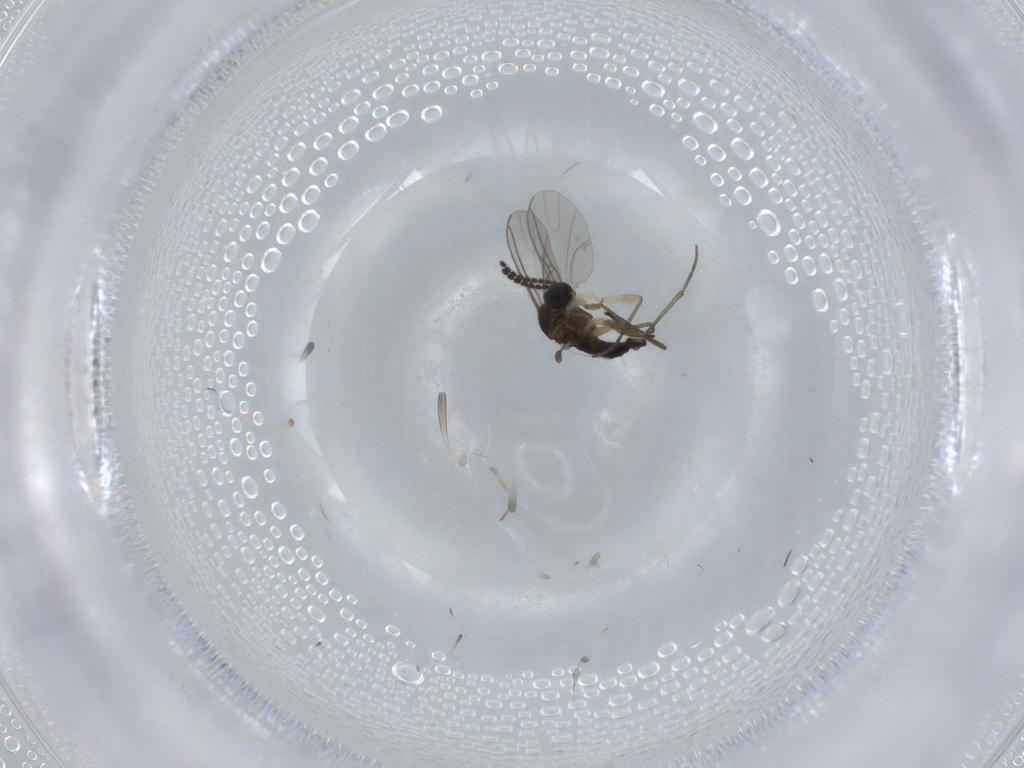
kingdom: Animalia
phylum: Arthropoda
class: Insecta
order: Diptera
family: Sciaridae
